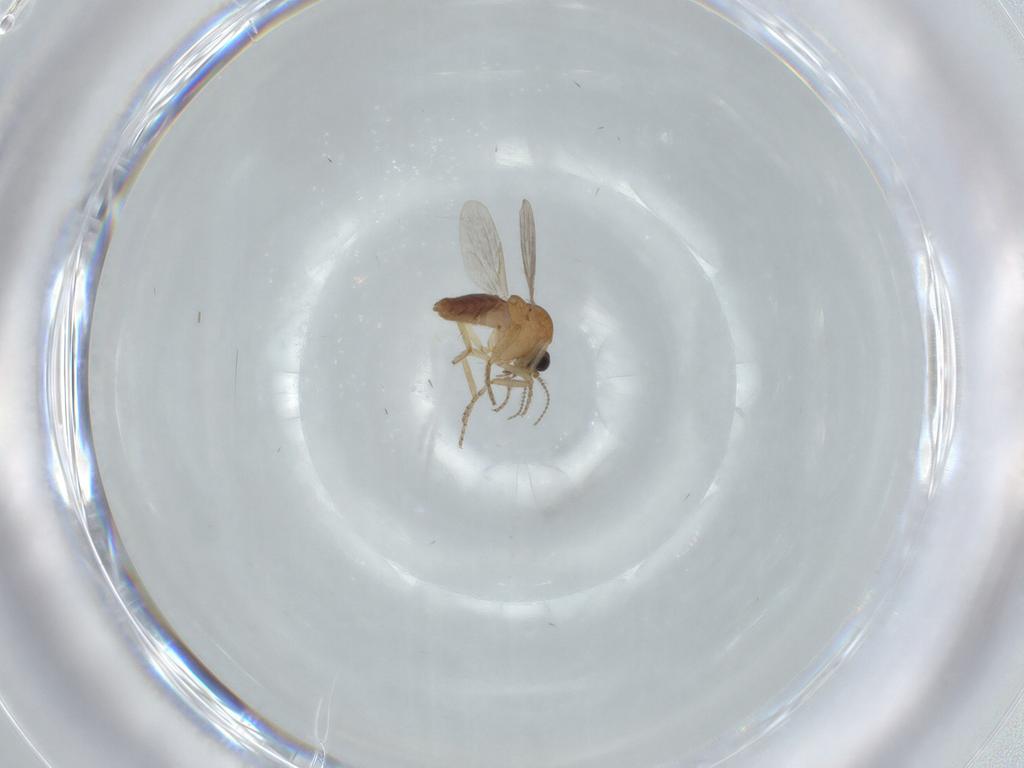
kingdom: Animalia
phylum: Arthropoda
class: Insecta
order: Diptera
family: Ceratopogonidae
